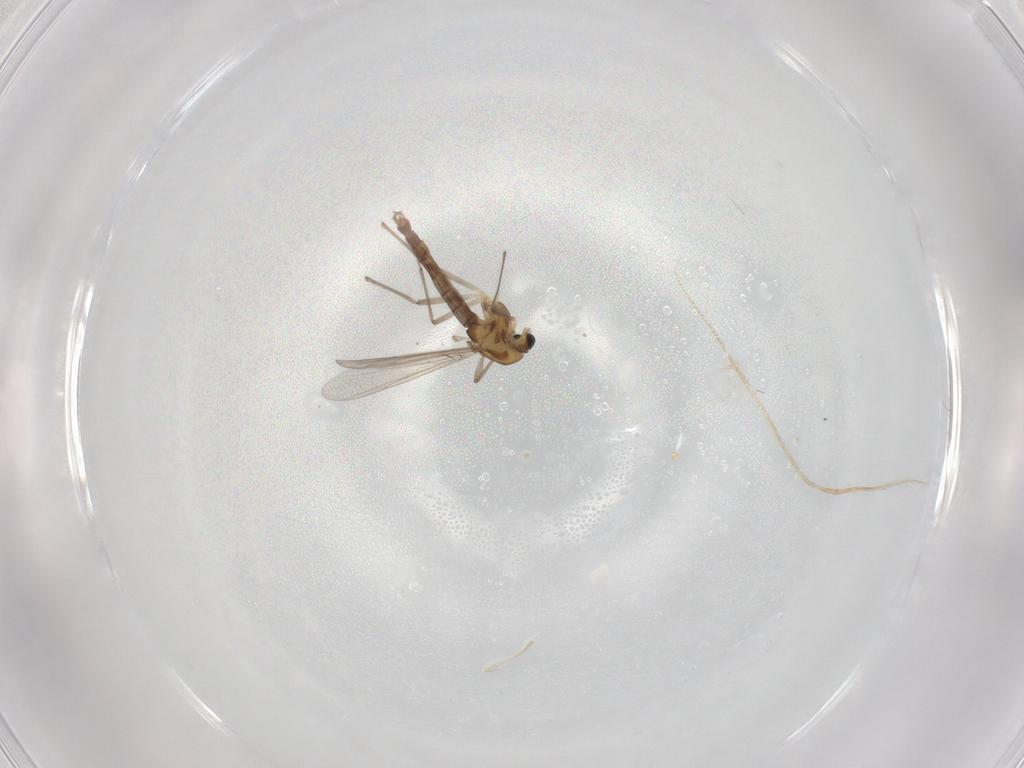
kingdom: Animalia
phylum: Arthropoda
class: Insecta
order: Diptera
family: Chironomidae
